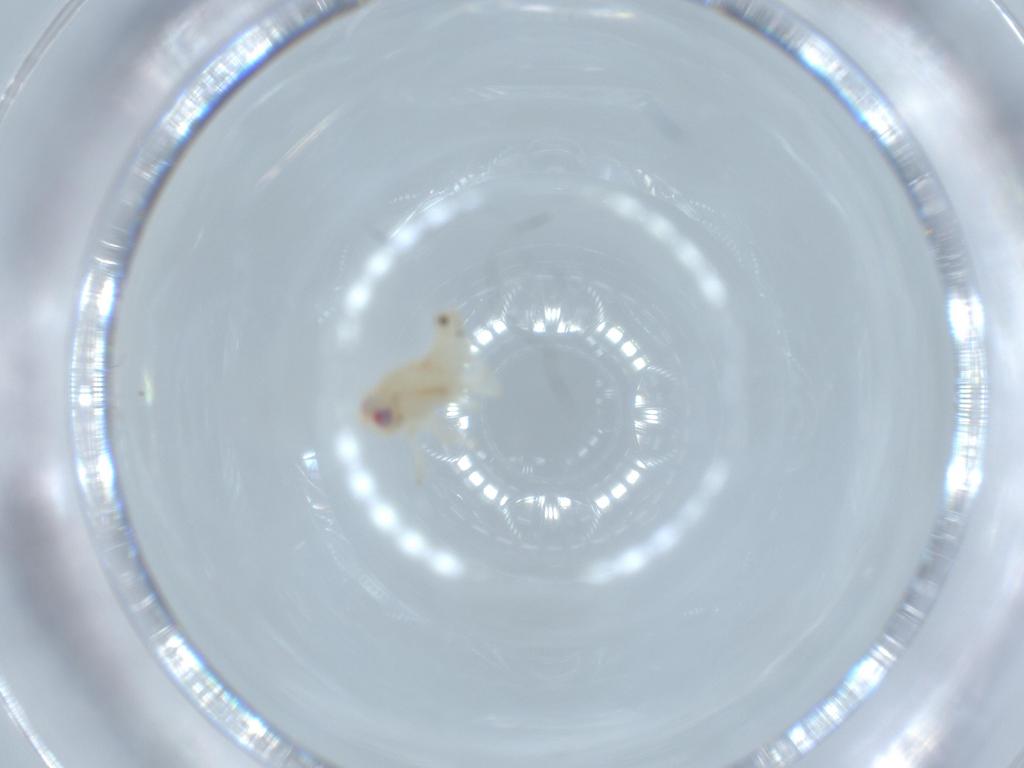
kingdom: Animalia
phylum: Arthropoda
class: Insecta
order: Hemiptera
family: Nogodinidae
